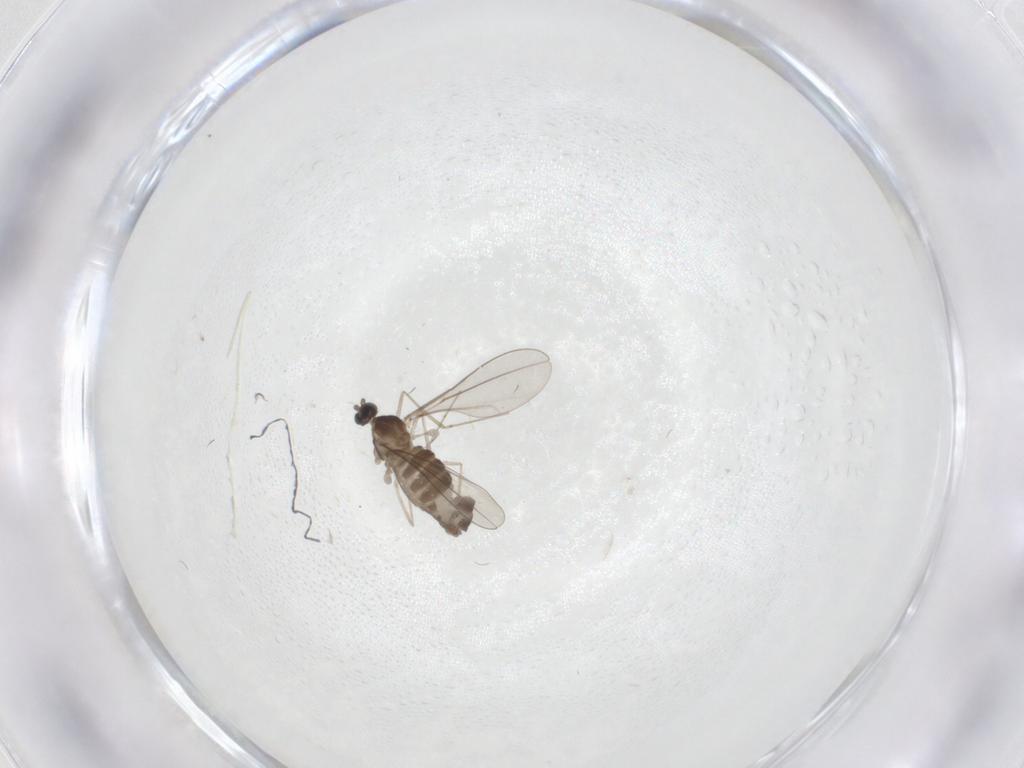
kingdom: Animalia
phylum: Arthropoda
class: Insecta
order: Diptera
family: Cecidomyiidae
